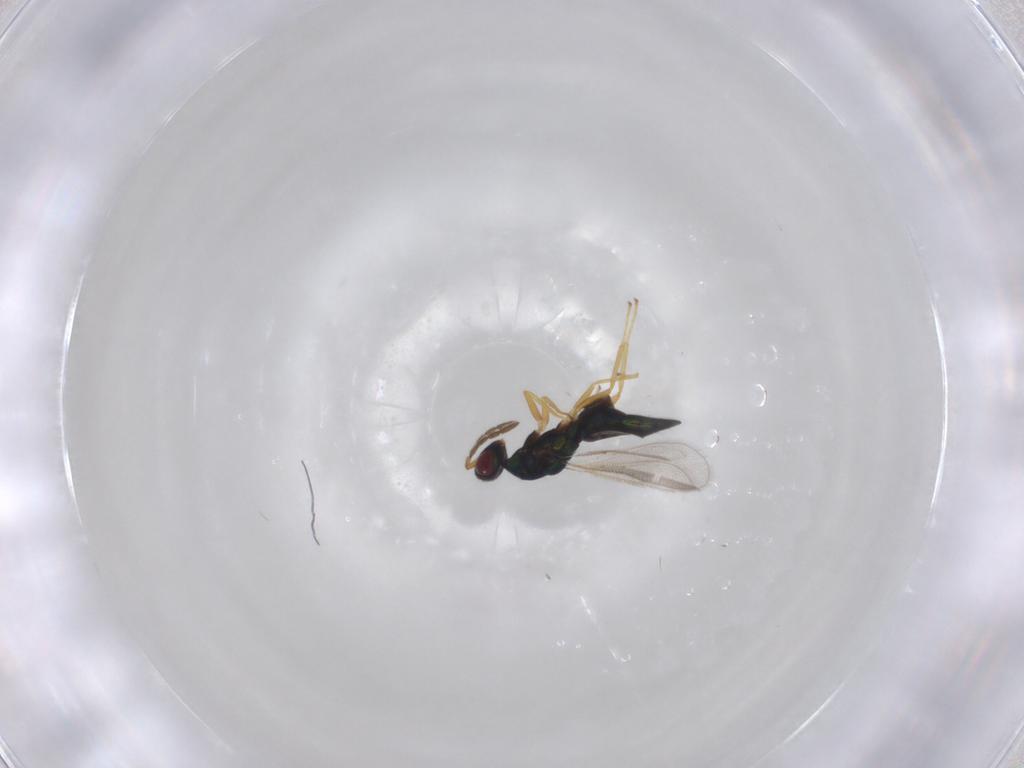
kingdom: Animalia
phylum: Arthropoda
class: Insecta
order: Hymenoptera
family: Eulophidae
